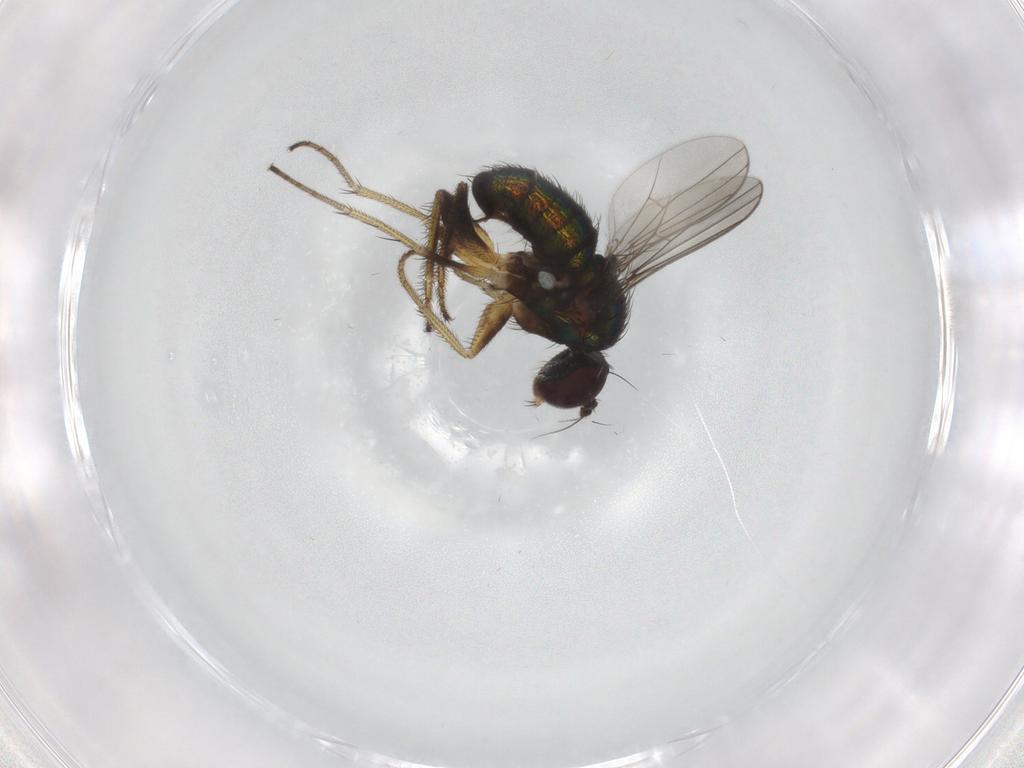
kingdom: Animalia
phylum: Arthropoda
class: Insecta
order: Diptera
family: Dolichopodidae
